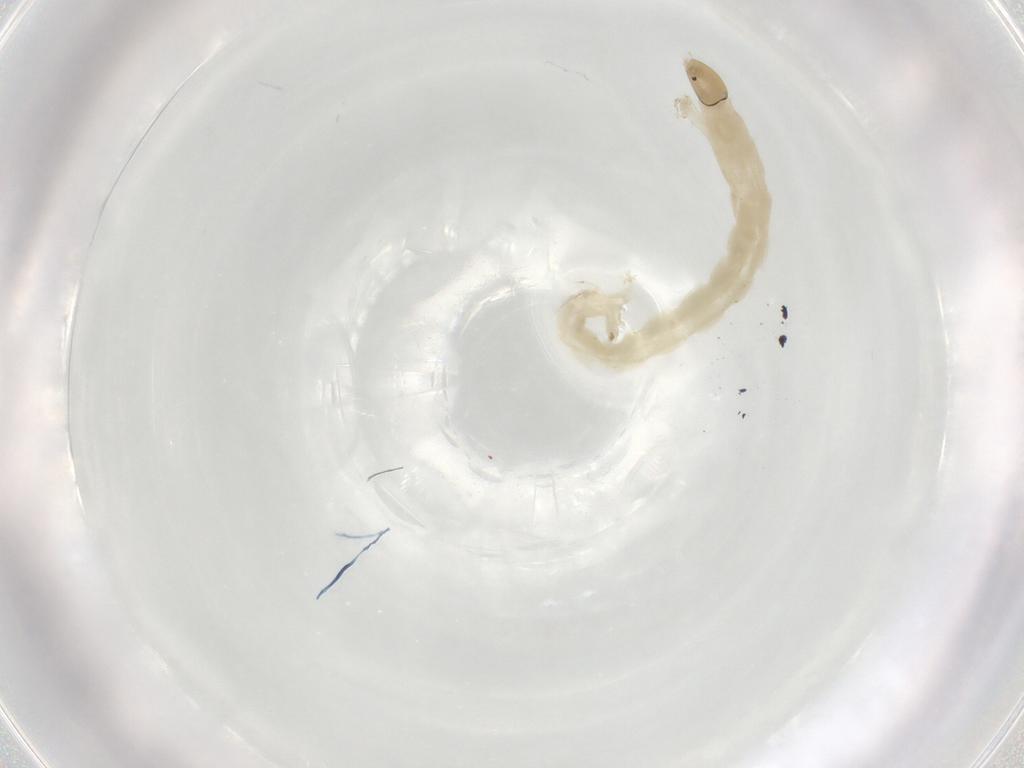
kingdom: Animalia
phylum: Arthropoda
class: Insecta
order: Diptera
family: Chironomidae
